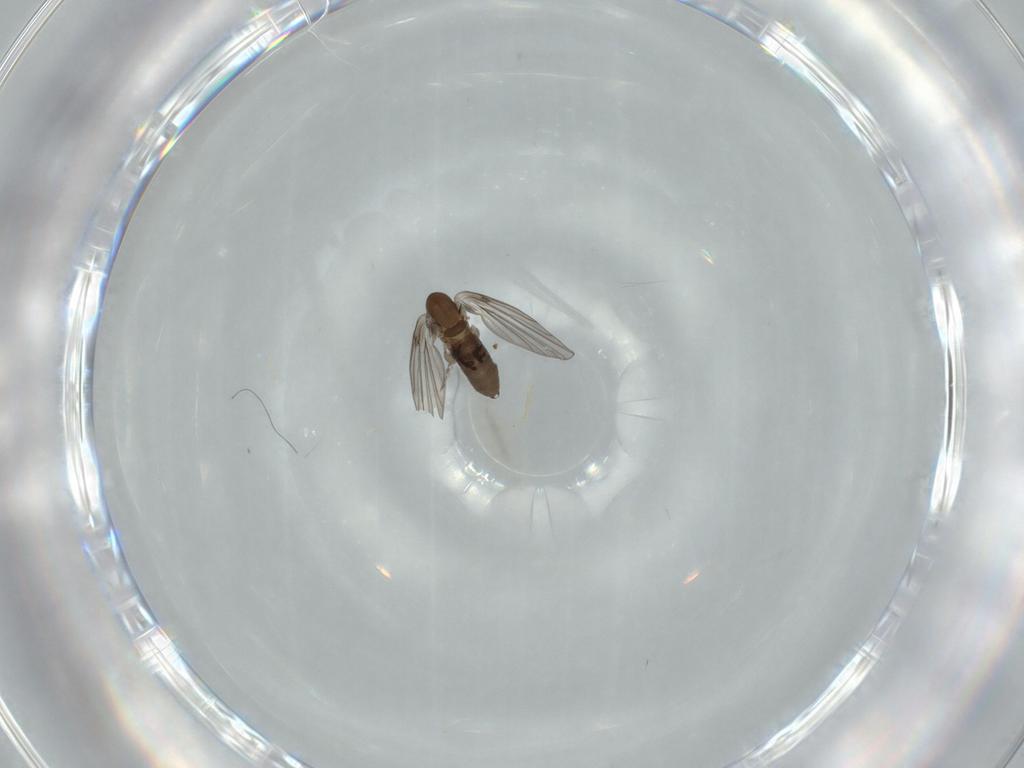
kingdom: Animalia
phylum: Arthropoda
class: Insecta
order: Diptera
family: Psychodidae
